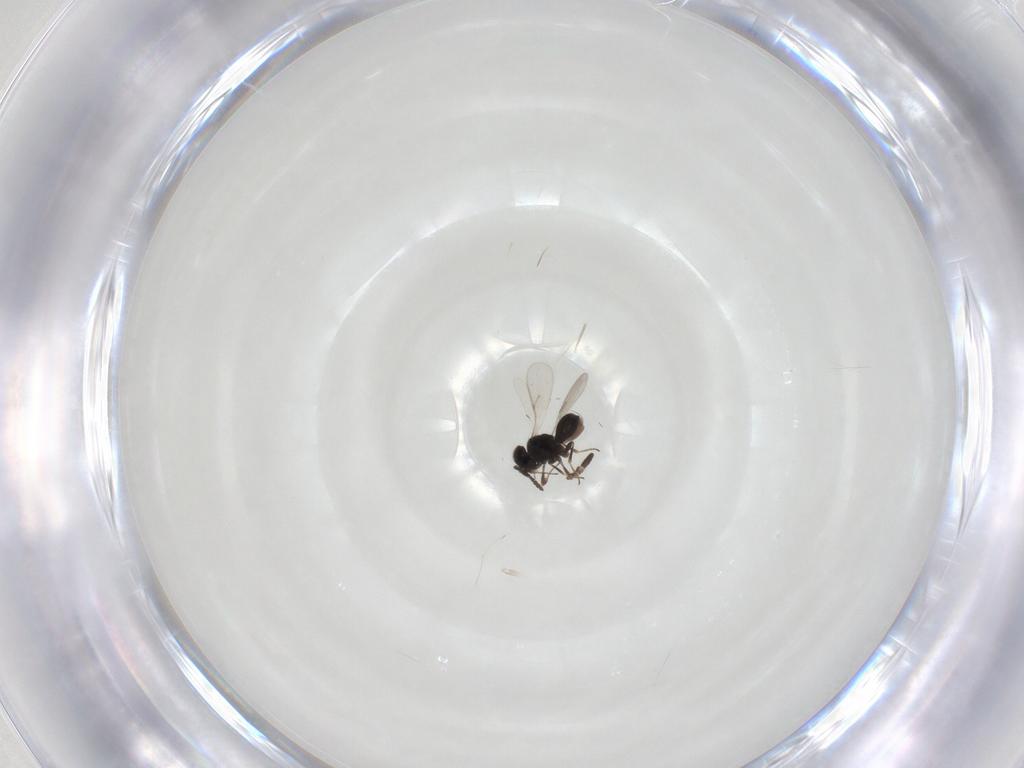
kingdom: Animalia
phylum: Arthropoda
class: Insecta
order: Hymenoptera
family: Scelionidae
